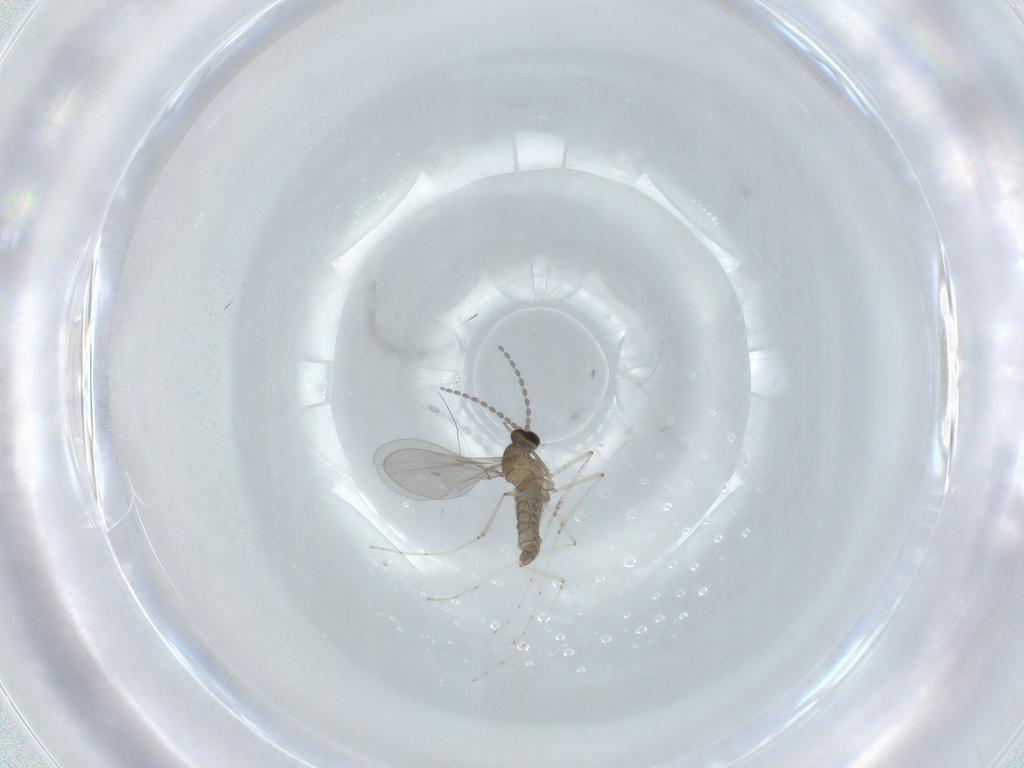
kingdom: Animalia
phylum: Arthropoda
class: Insecta
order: Diptera
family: Cecidomyiidae
